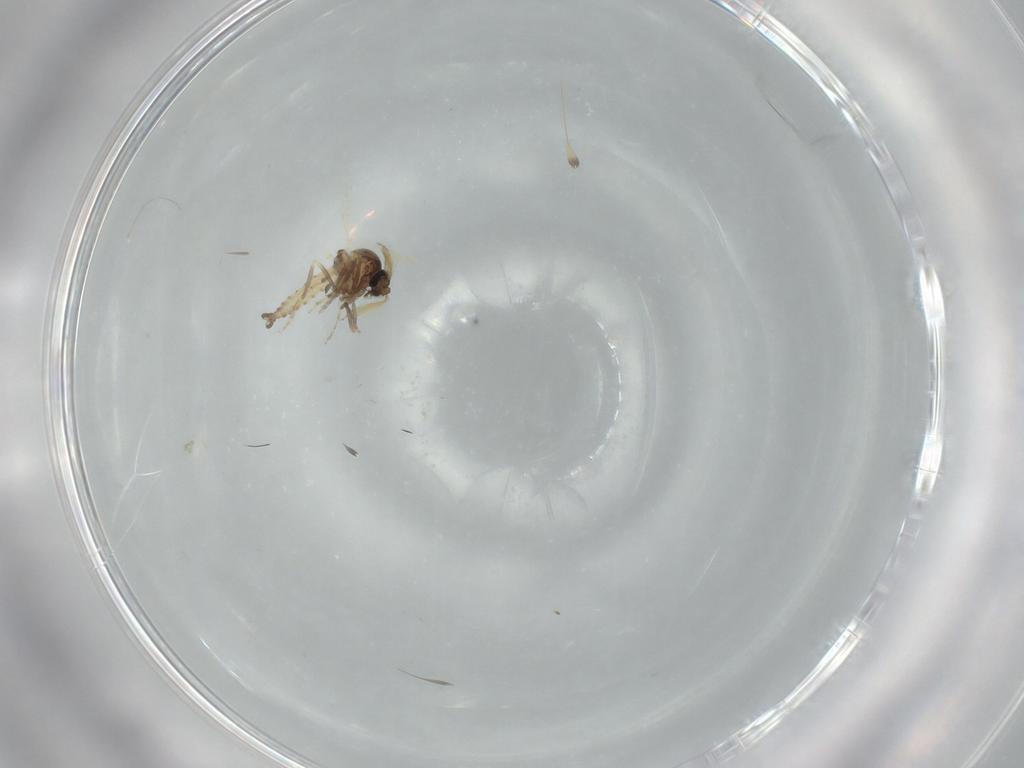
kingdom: Animalia
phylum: Arthropoda
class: Insecta
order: Diptera
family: Ceratopogonidae
